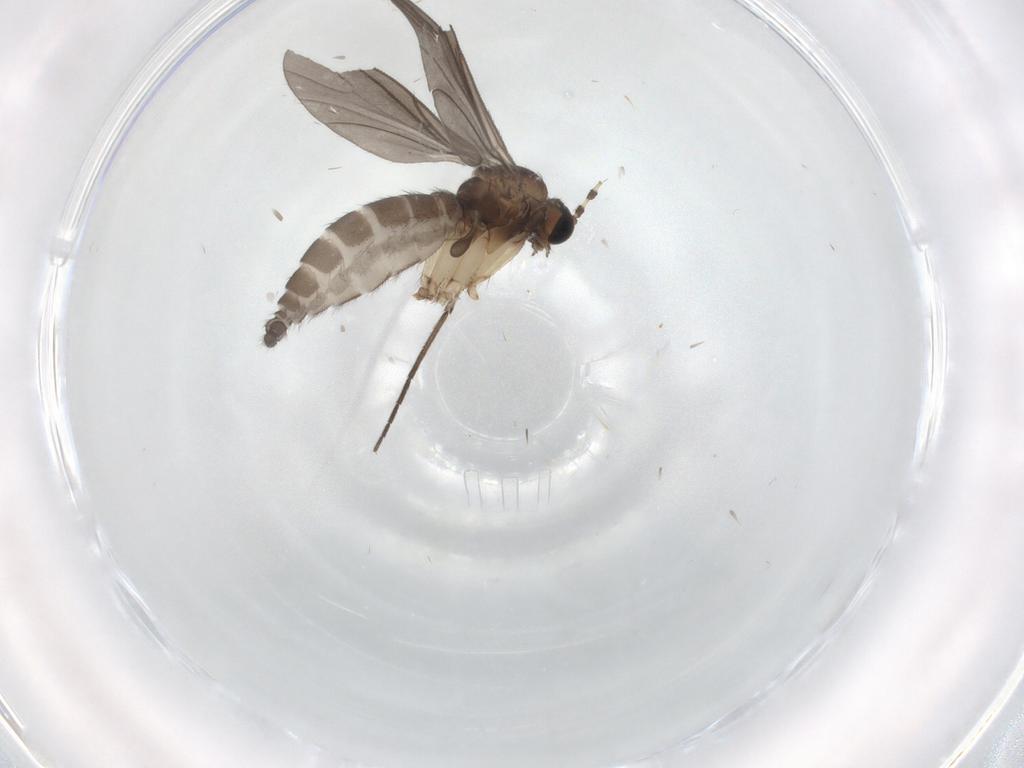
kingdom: Animalia
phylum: Arthropoda
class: Insecta
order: Diptera
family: Sciaridae
